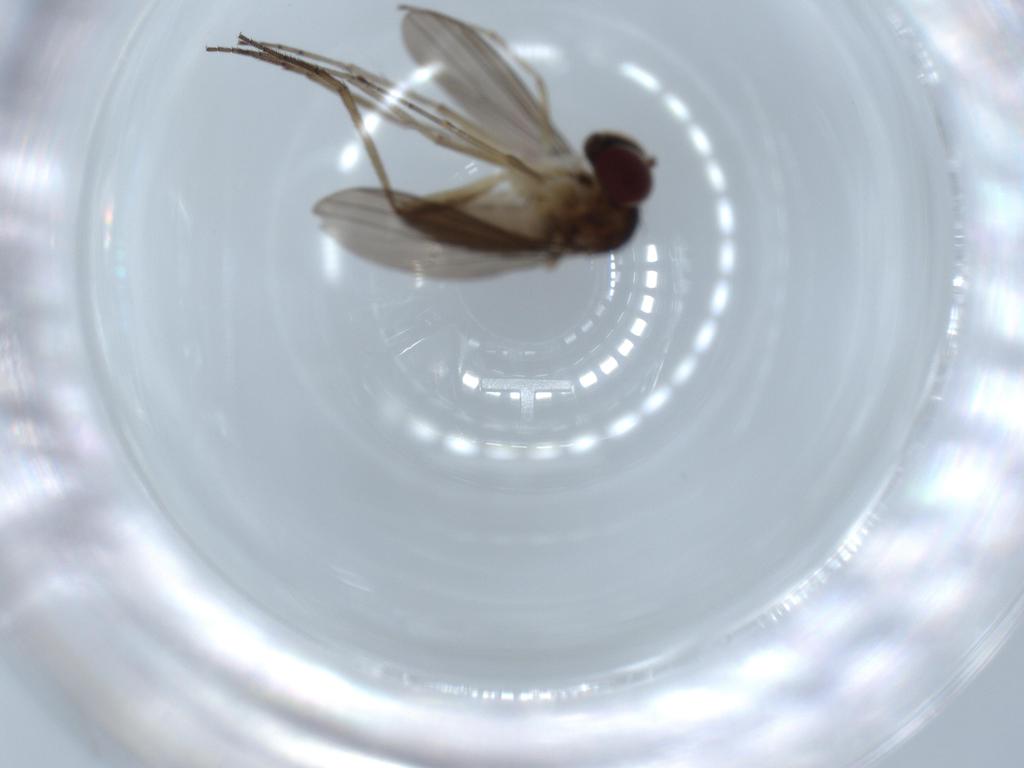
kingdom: Animalia
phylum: Arthropoda
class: Insecta
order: Diptera
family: Dolichopodidae
